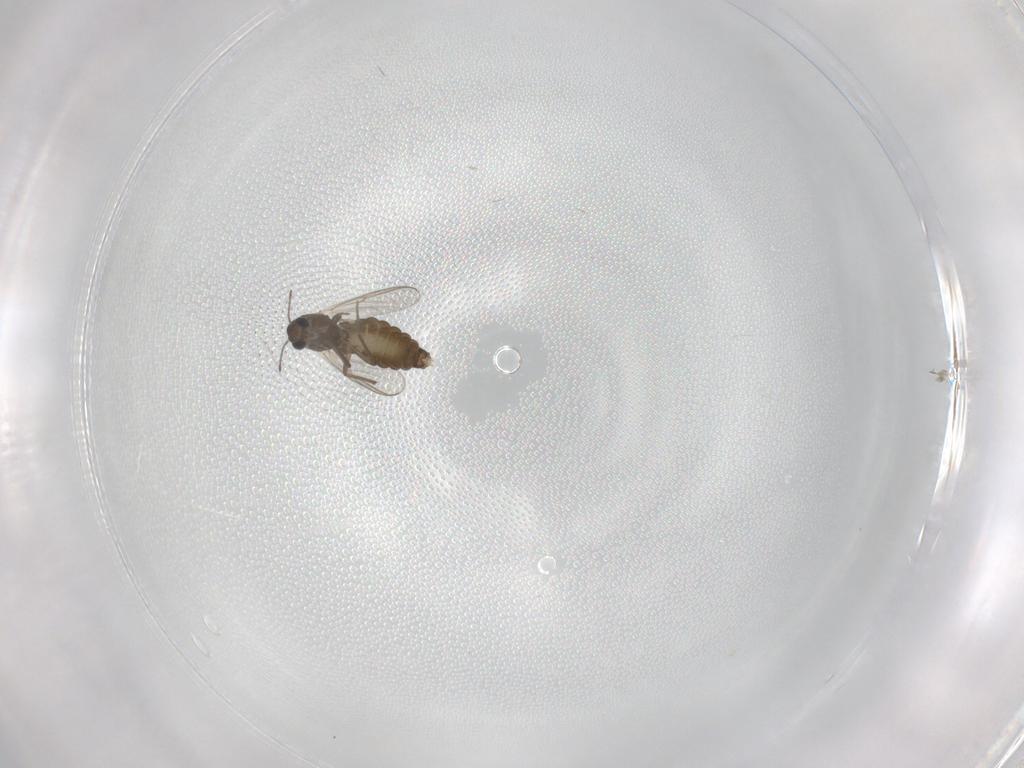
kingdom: Animalia
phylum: Arthropoda
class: Insecta
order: Diptera
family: Chironomidae
